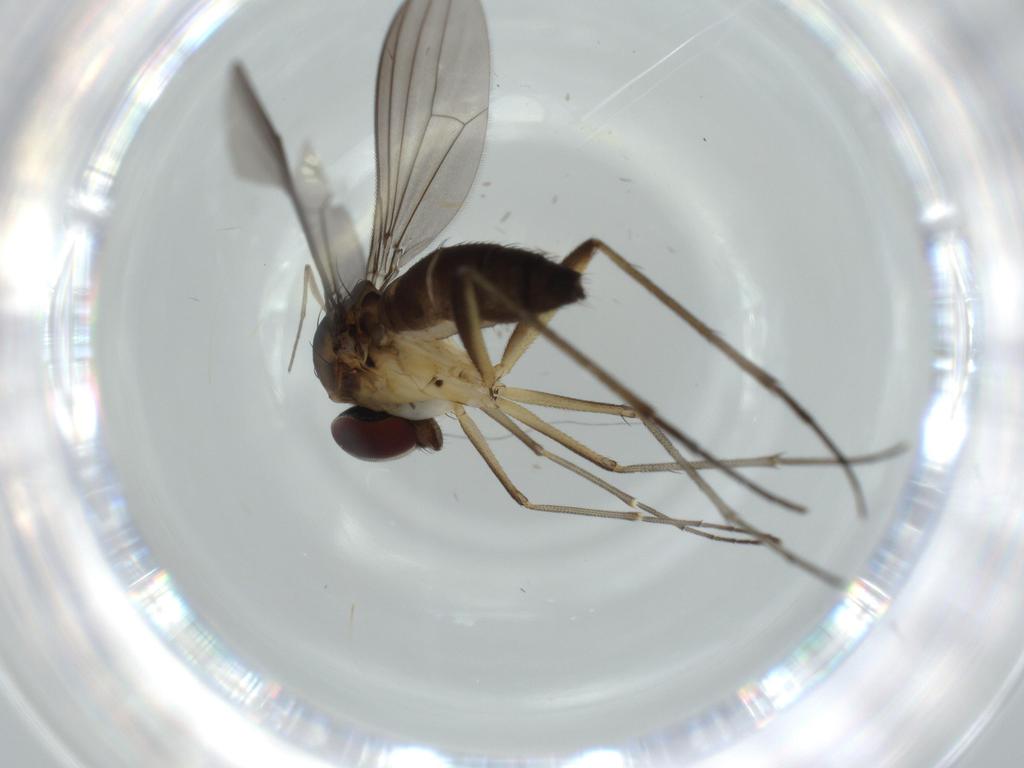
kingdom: Animalia
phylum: Arthropoda
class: Insecta
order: Diptera
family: Dolichopodidae
